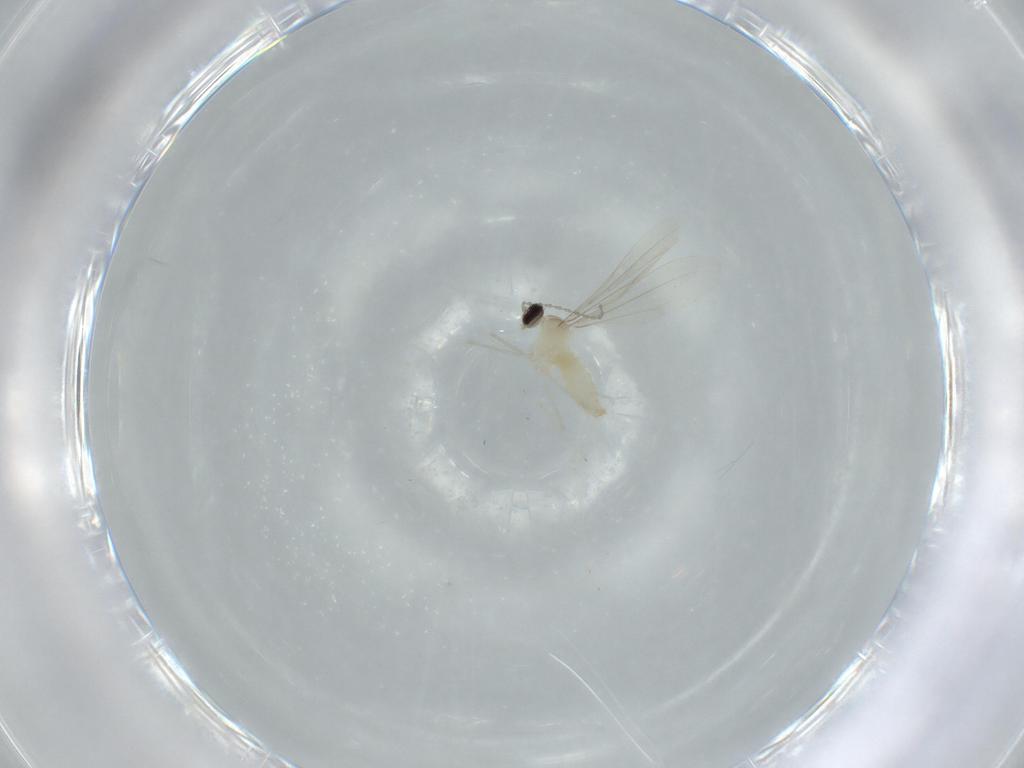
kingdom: Animalia
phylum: Arthropoda
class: Insecta
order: Diptera
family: Cecidomyiidae
